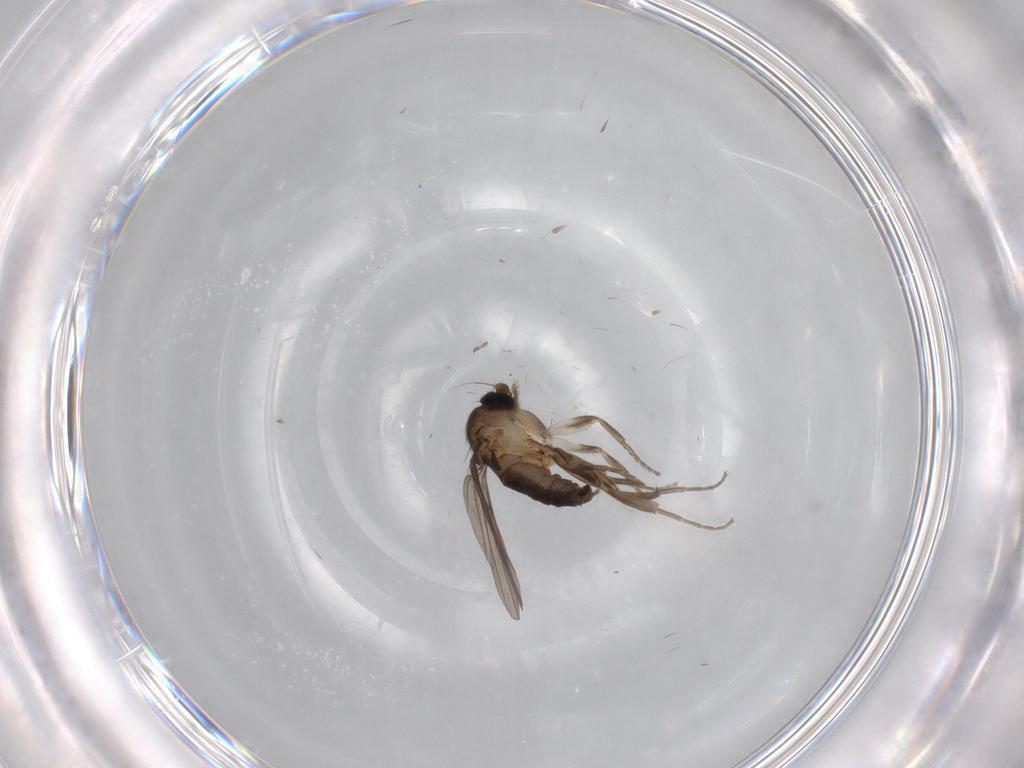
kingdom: Animalia
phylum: Arthropoda
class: Insecta
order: Diptera
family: Cecidomyiidae
